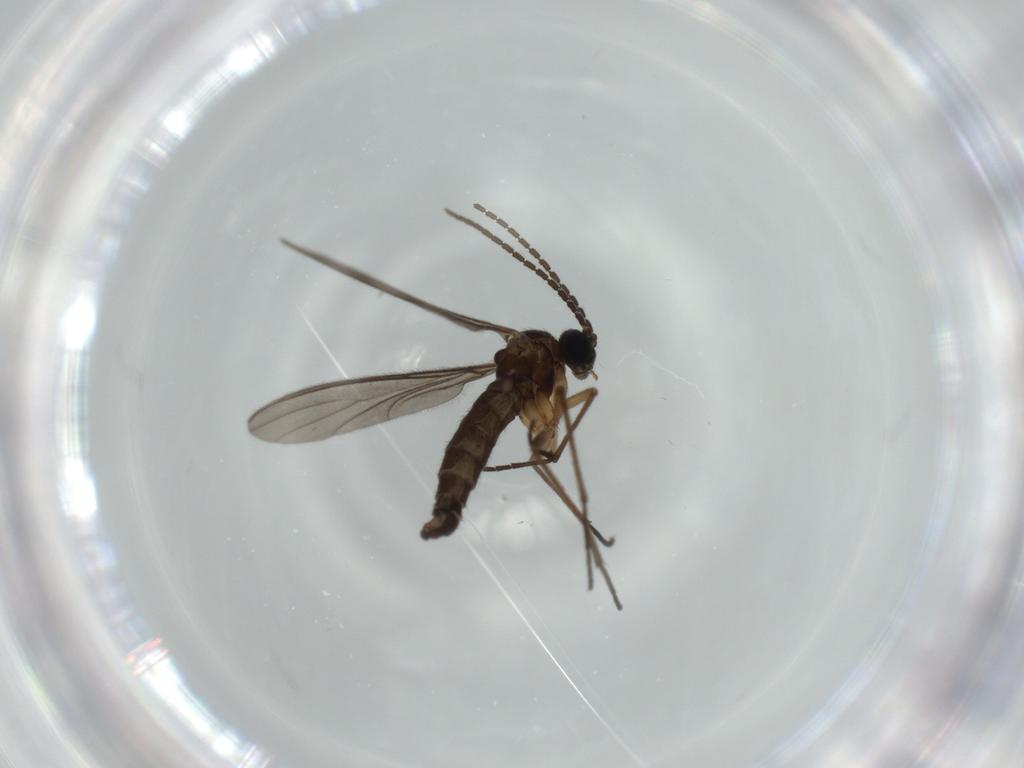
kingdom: Animalia
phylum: Arthropoda
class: Insecta
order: Diptera
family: Sciaridae
